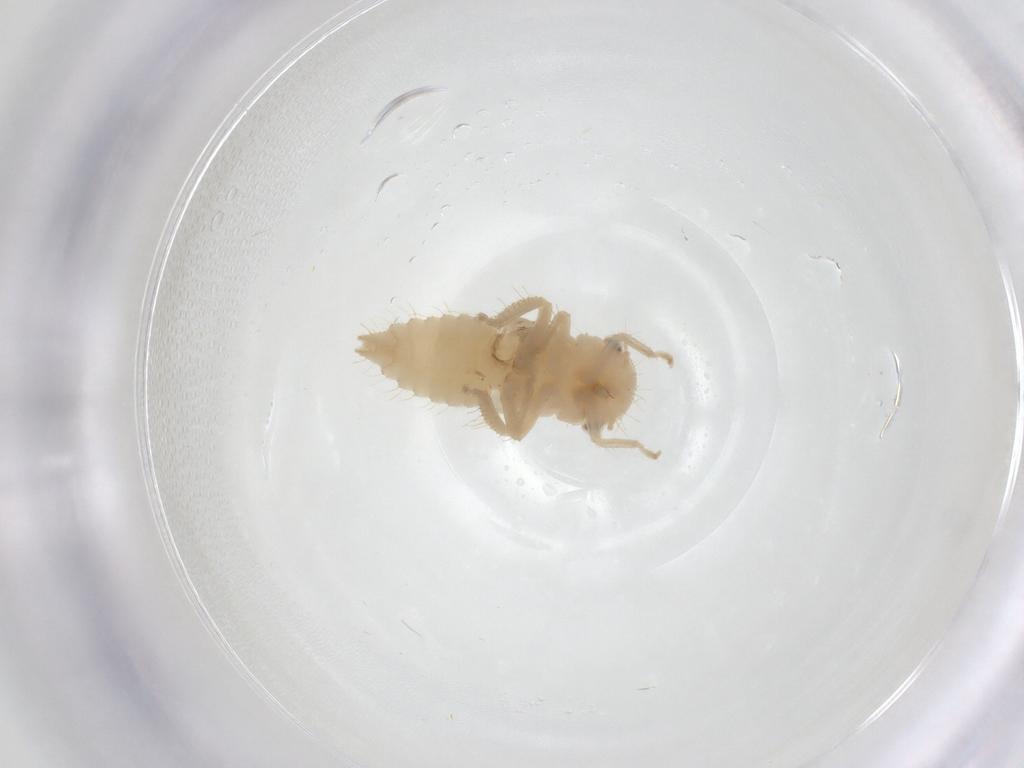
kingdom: Animalia
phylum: Arthropoda
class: Insecta
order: Hemiptera
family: Cicadellidae
